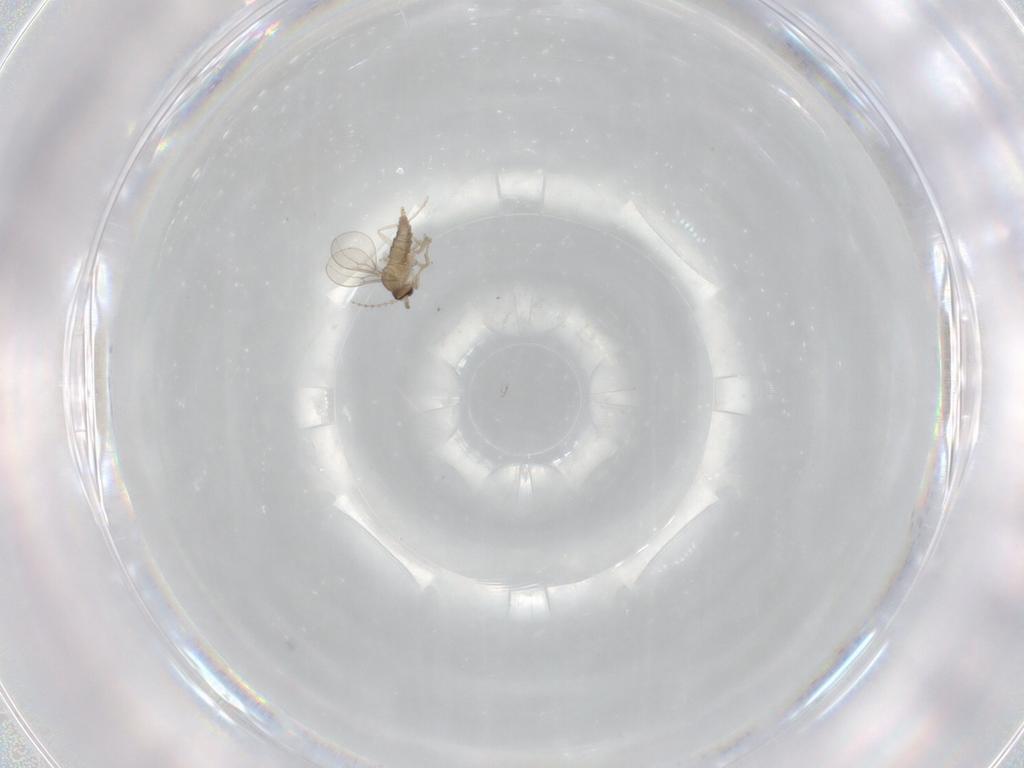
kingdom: Animalia
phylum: Arthropoda
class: Insecta
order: Diptera
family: Cecidomyiidae
